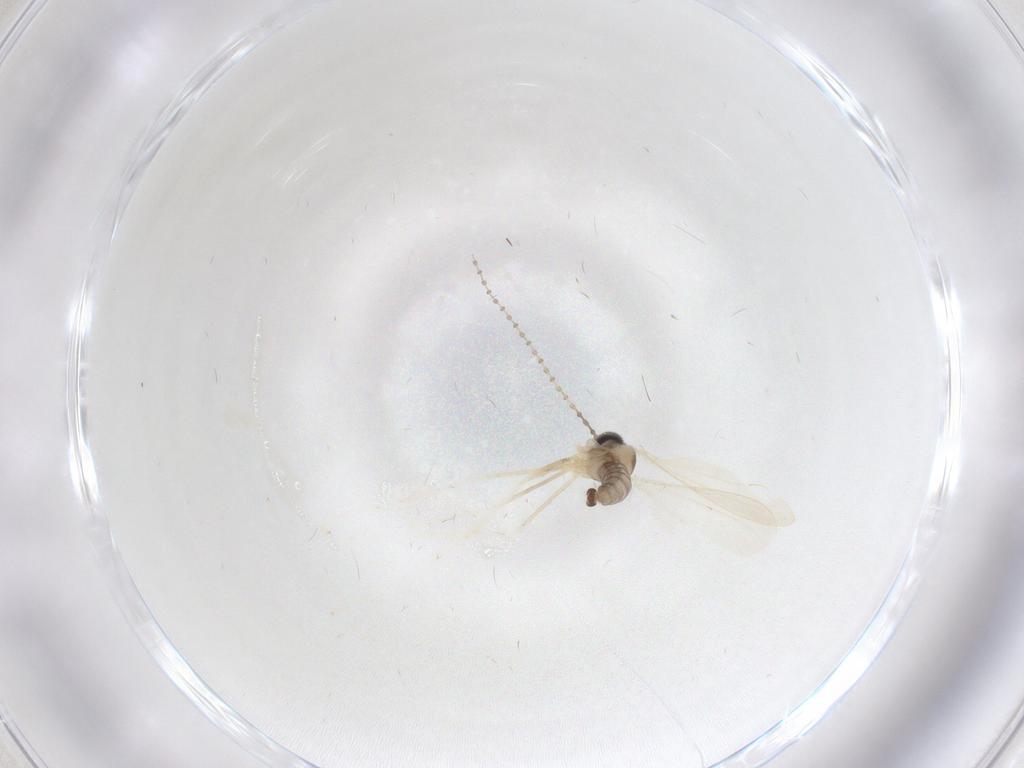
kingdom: Animalia
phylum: Arthropoda
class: Insecta
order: Diptera
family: Cecidomyiidae
